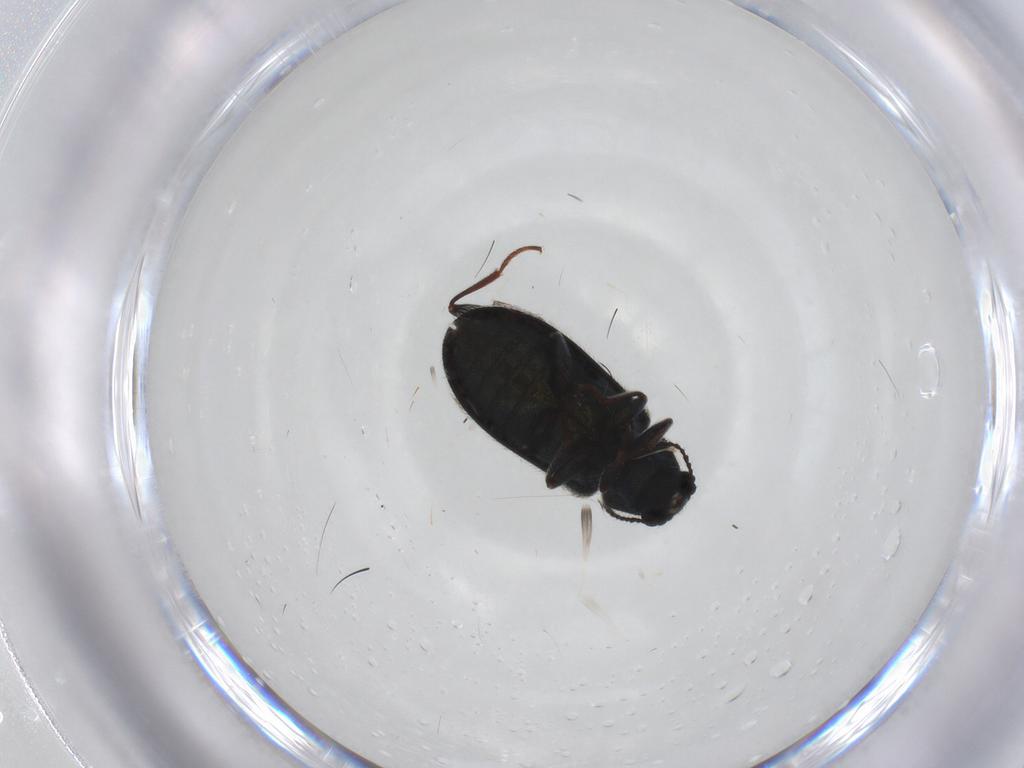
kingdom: Animalia
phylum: Arthropoda
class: Insecta
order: Coleoptera
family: Melyridae
